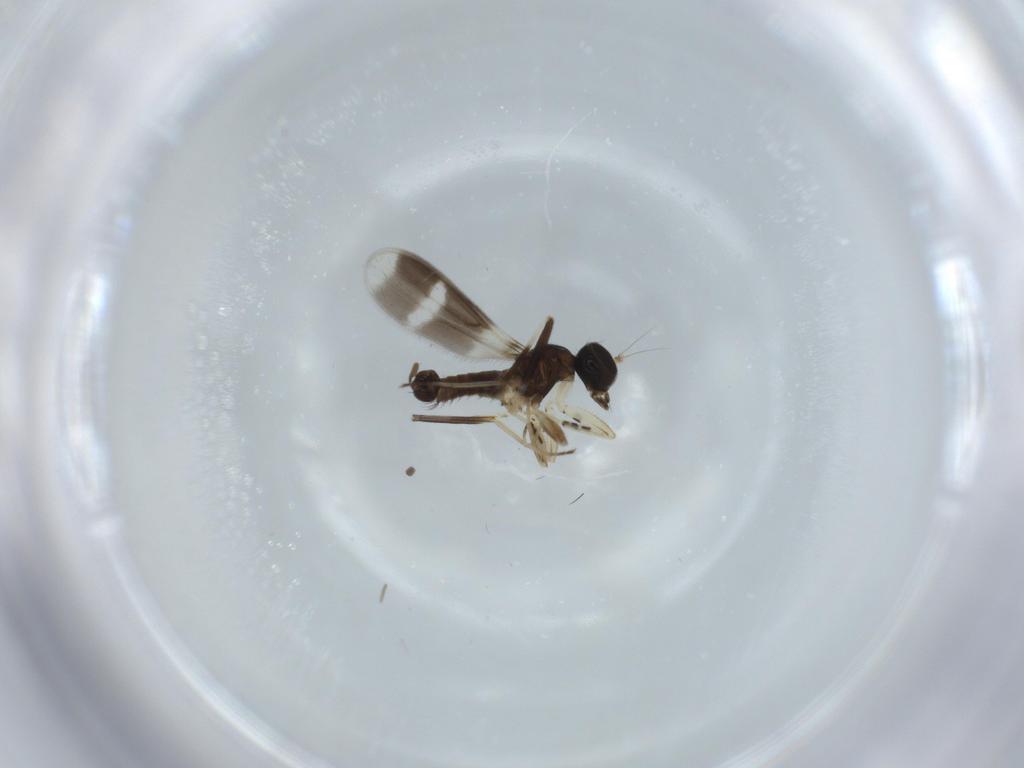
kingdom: Animalia
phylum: Arthropoda
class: Insecta
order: Diptera
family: Phoridae
